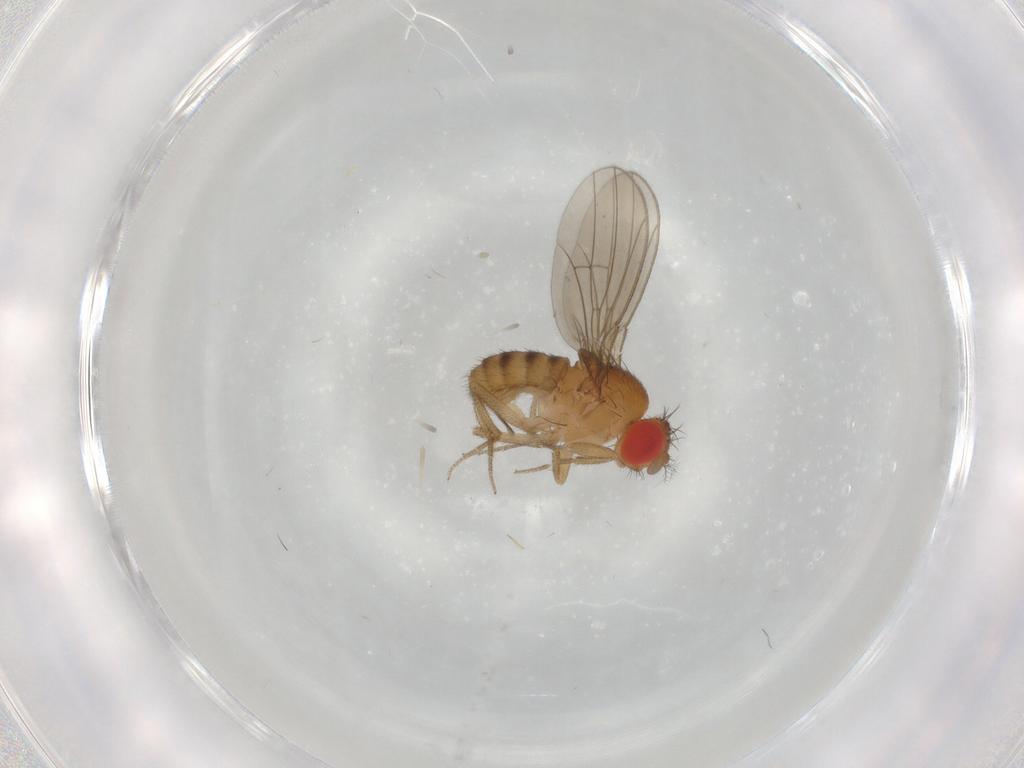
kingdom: Animalia
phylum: Arthropoda
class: Insecta
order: Diptera
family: Drosophilidae
